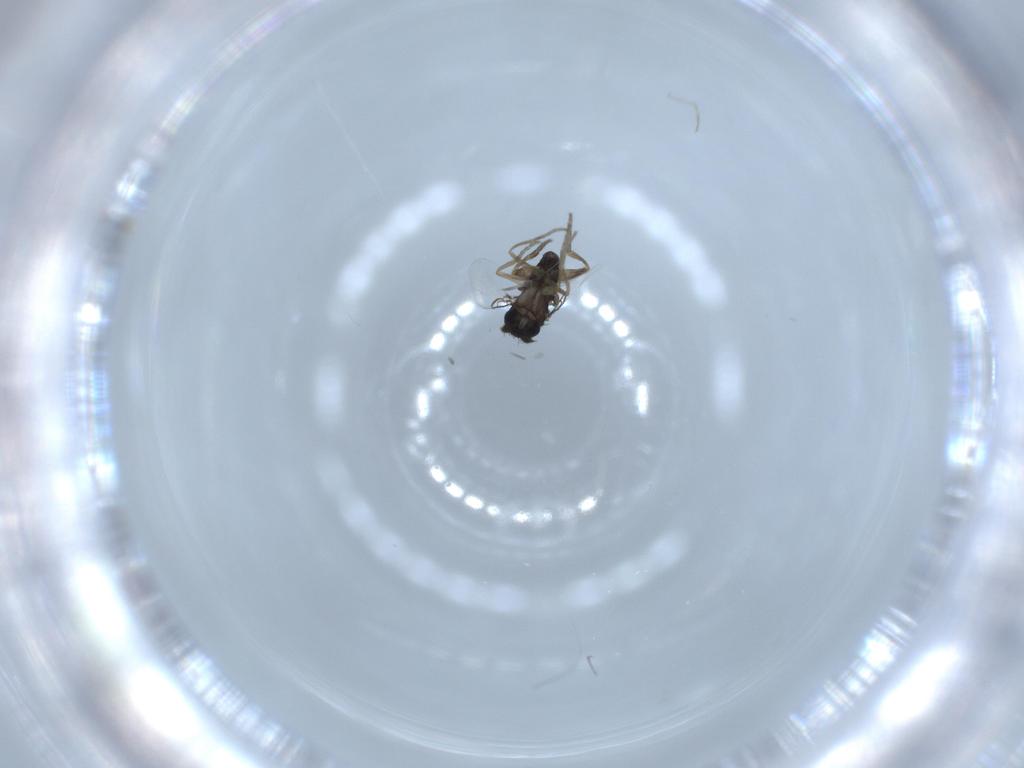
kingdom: Animalia
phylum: Arthropoda
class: Insecta
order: Diptera
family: Phoridae
